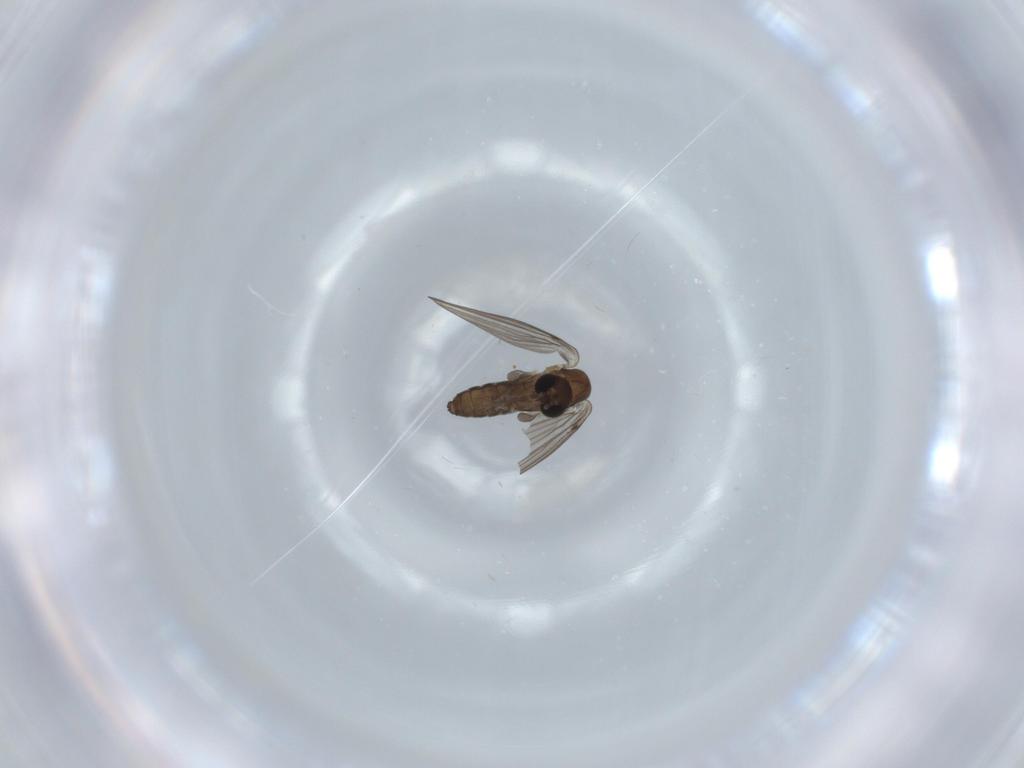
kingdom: Animalia
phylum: Arthropoda
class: Insecta
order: Diptera
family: Psychodidae
